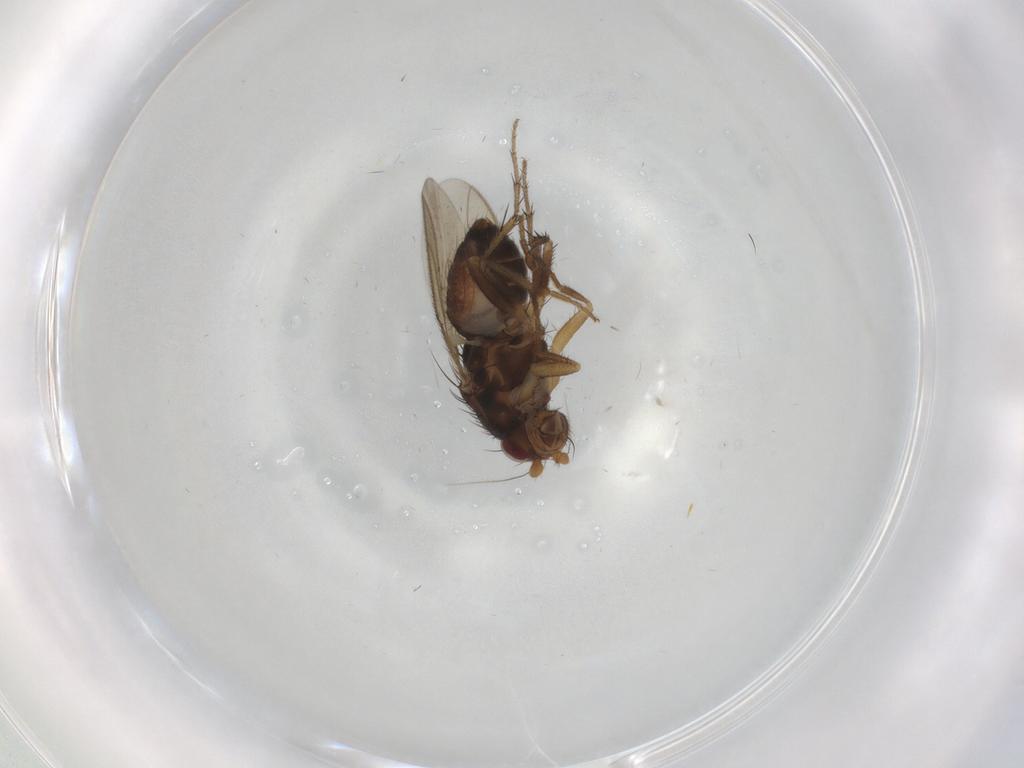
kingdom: Animalia
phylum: Arthropoda
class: Insecta
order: Diptera
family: Sphaeroceridae
